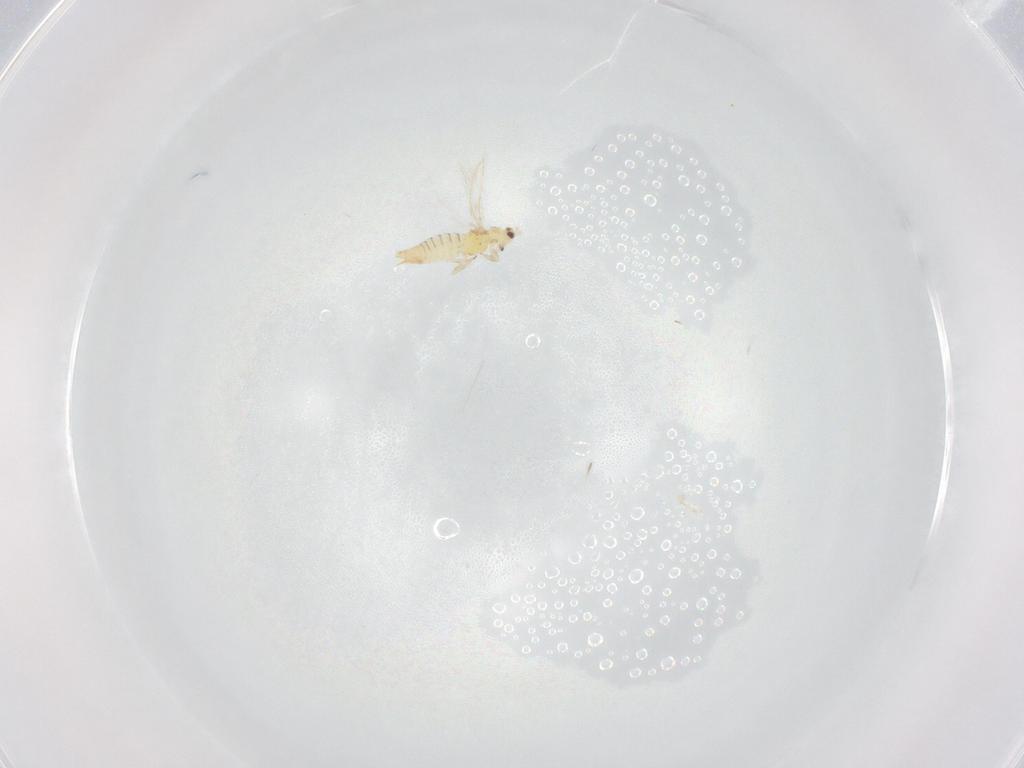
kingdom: Animalia
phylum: Arthropoda
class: Insecta
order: Thysanoptera
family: Thripidae
